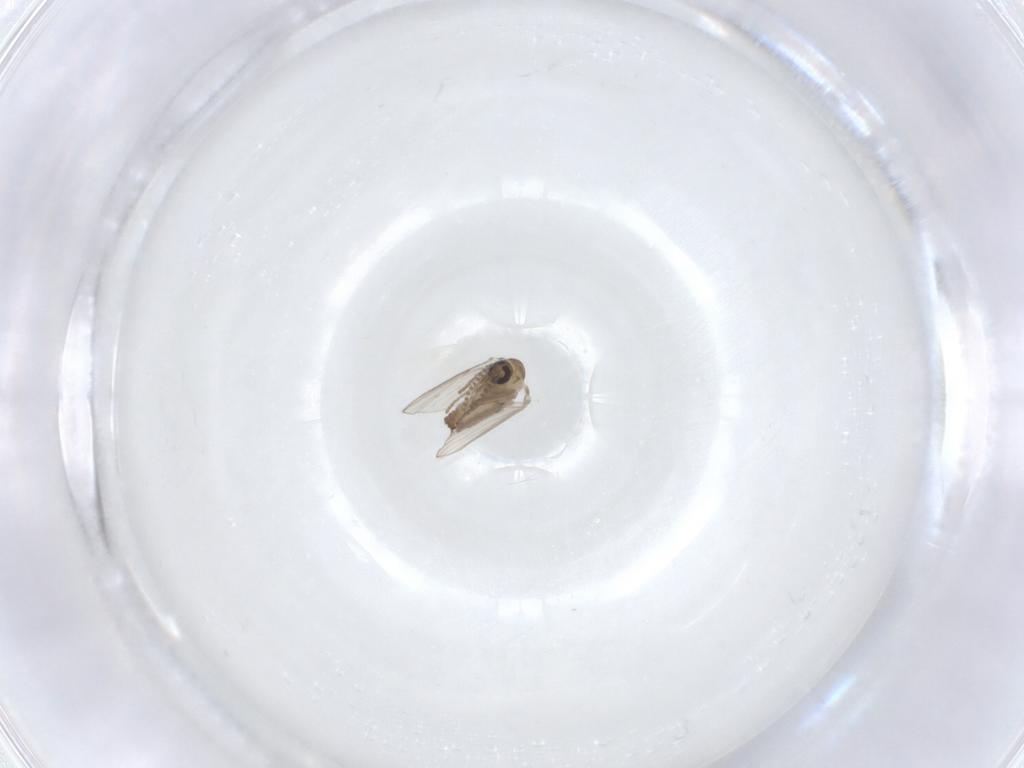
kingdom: Animalia
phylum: Arthropoda
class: Insecta
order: Diptera
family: Psychodidae
